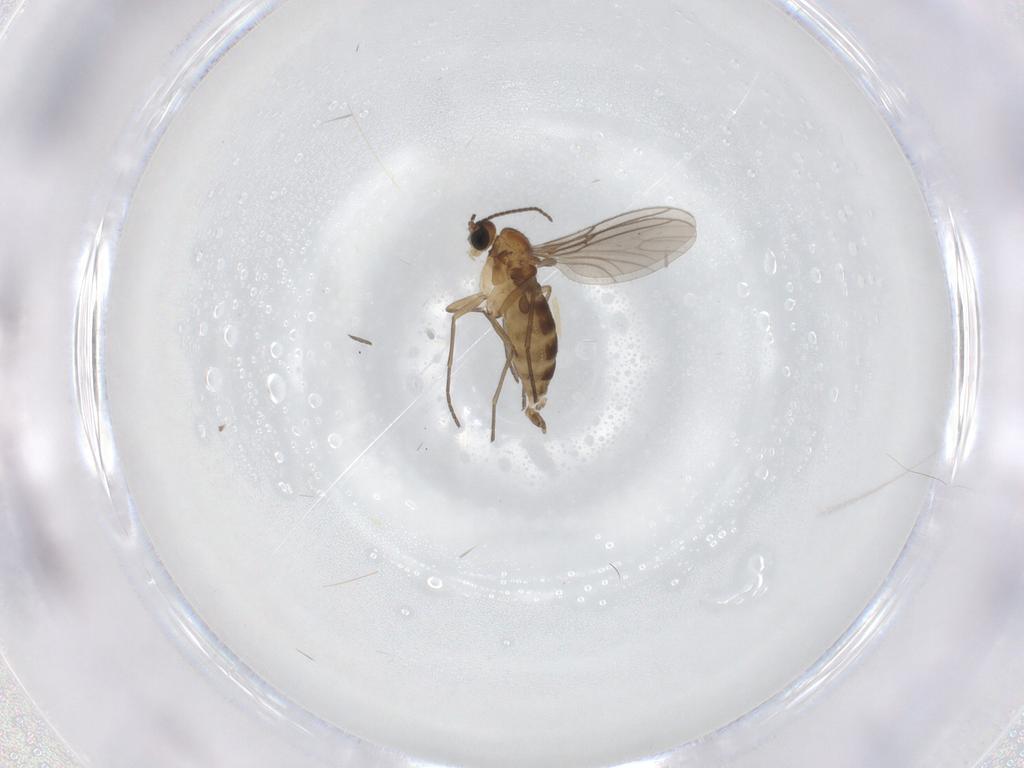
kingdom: Animalia
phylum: Arthropoda
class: Insecta
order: Diptera
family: Sciaridae
